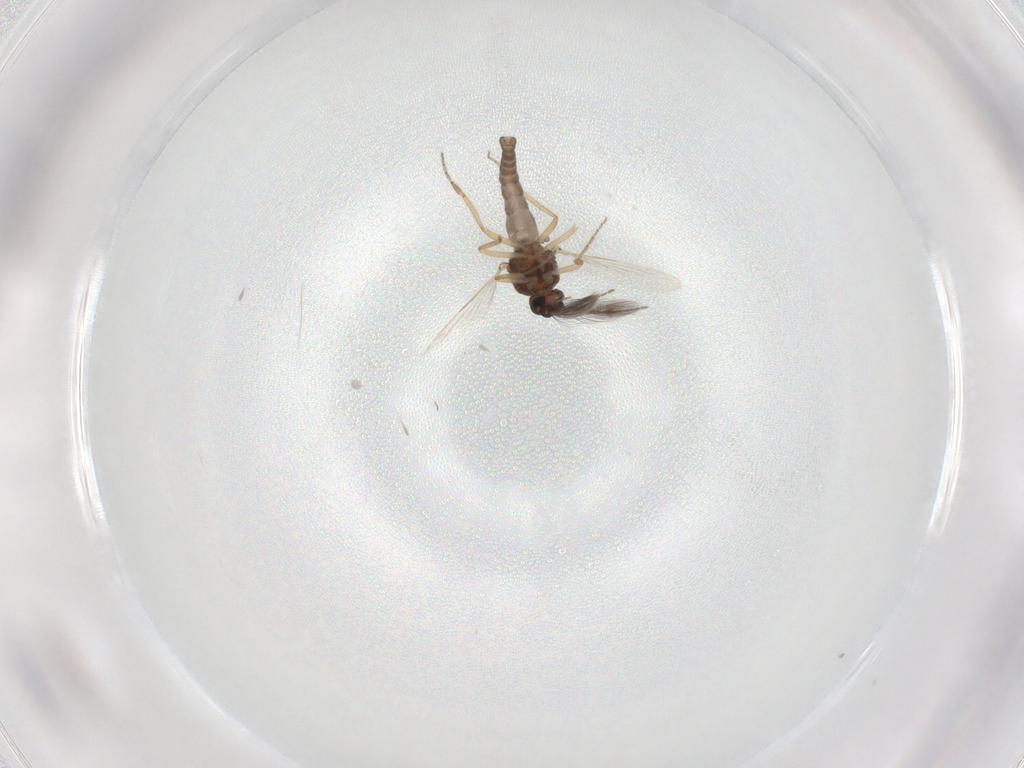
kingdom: Animalia
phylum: Arthropoda
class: Insecta
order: Diptera
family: Ceratopogonidae
